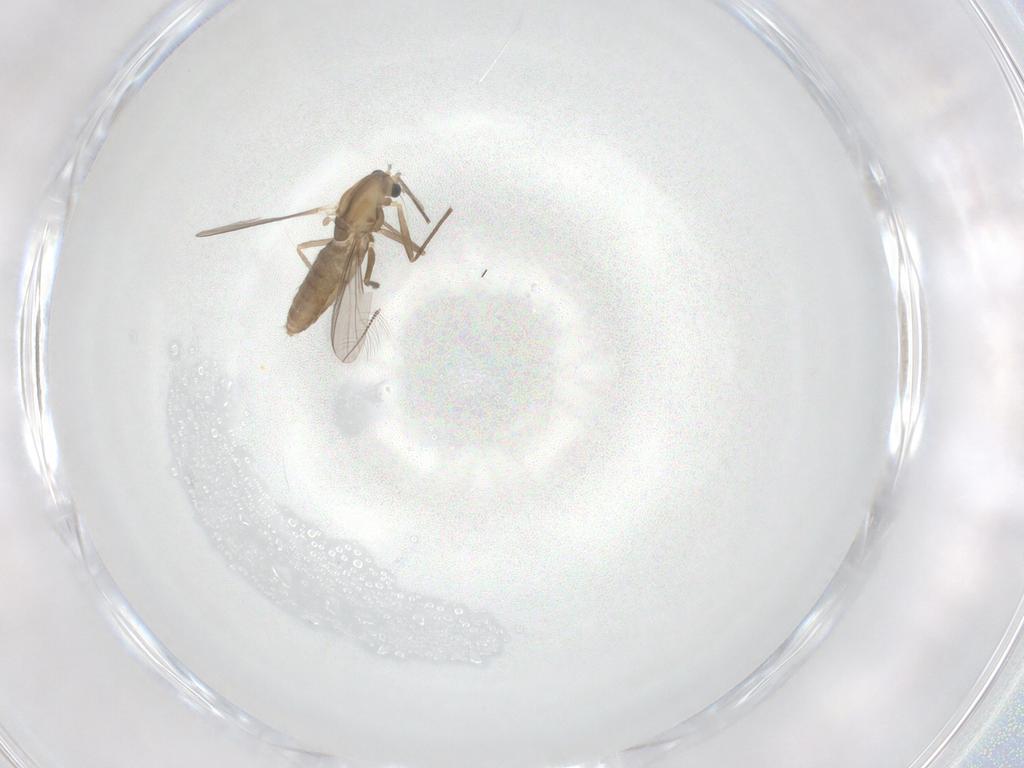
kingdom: Animalia
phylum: Arthropoda
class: Insecta
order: Diptera
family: Chironomidae
